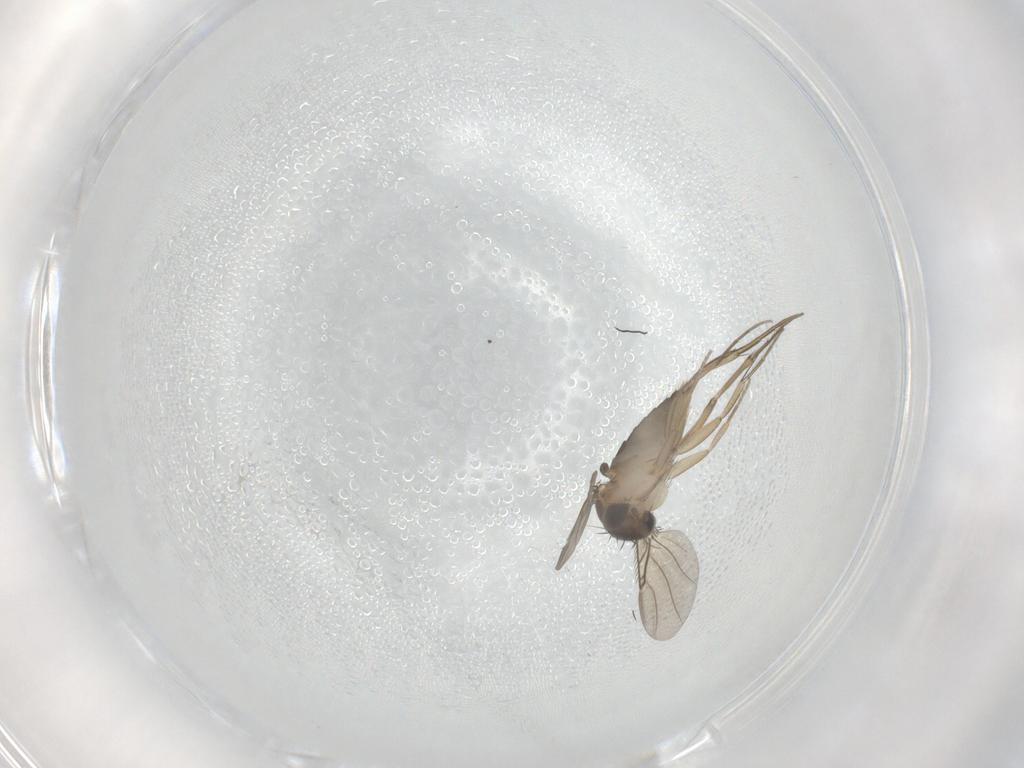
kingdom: Animalia
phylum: Arthropoda
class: Insecta
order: Diptera
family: Phoridae
